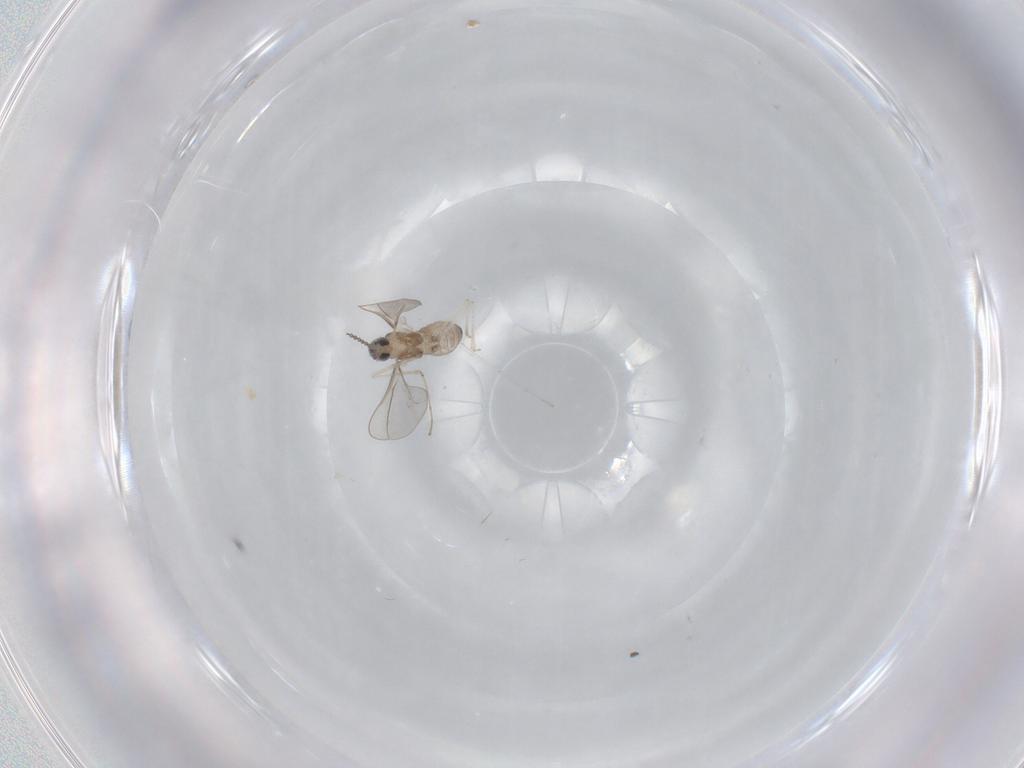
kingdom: Animalia
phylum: Arthropoda
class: Insecta
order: Diptera
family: Cecidomyiidae
